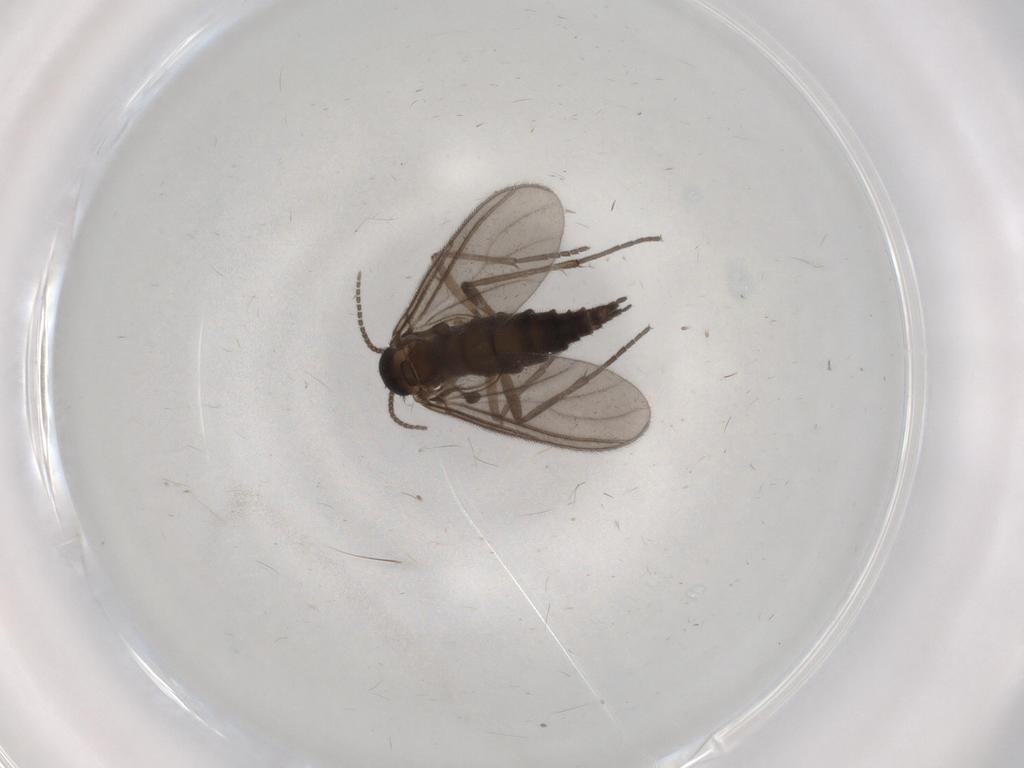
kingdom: Animalia
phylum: Arthropoda
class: Insecta
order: Diptera
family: Sciaridae
